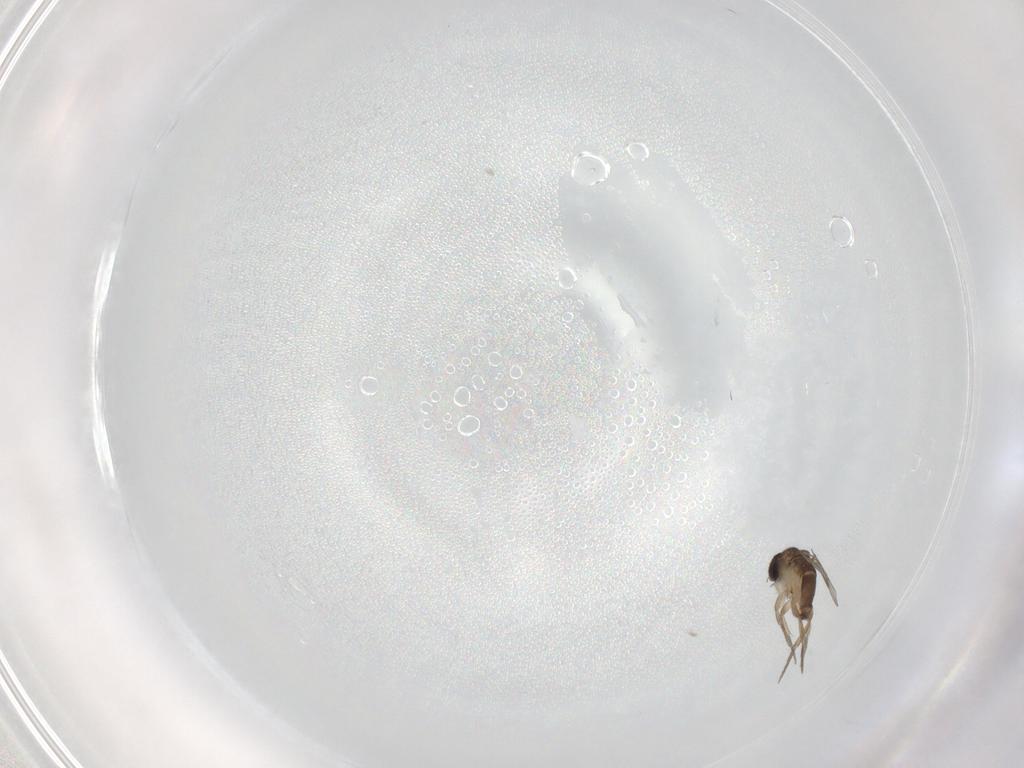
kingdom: Animalia
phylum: Arthropoda
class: Insecta
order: Diptera
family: Phoridae
